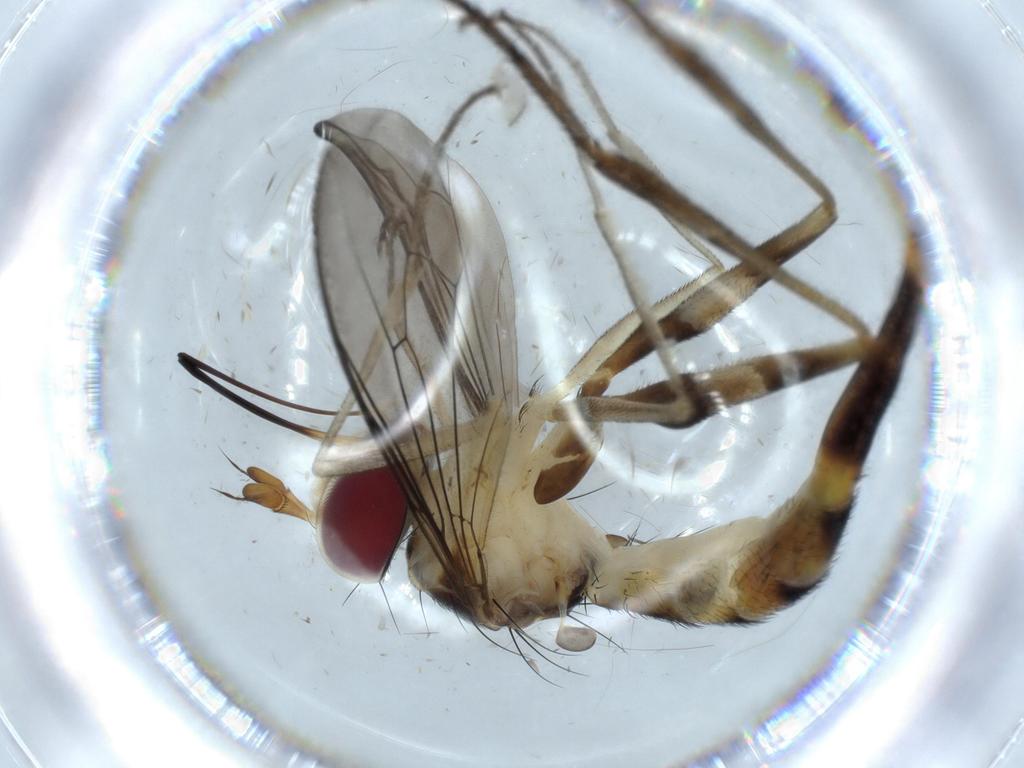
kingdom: Animalia
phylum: Arthropoda
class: Insecta
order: Diptera
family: Conopidae
